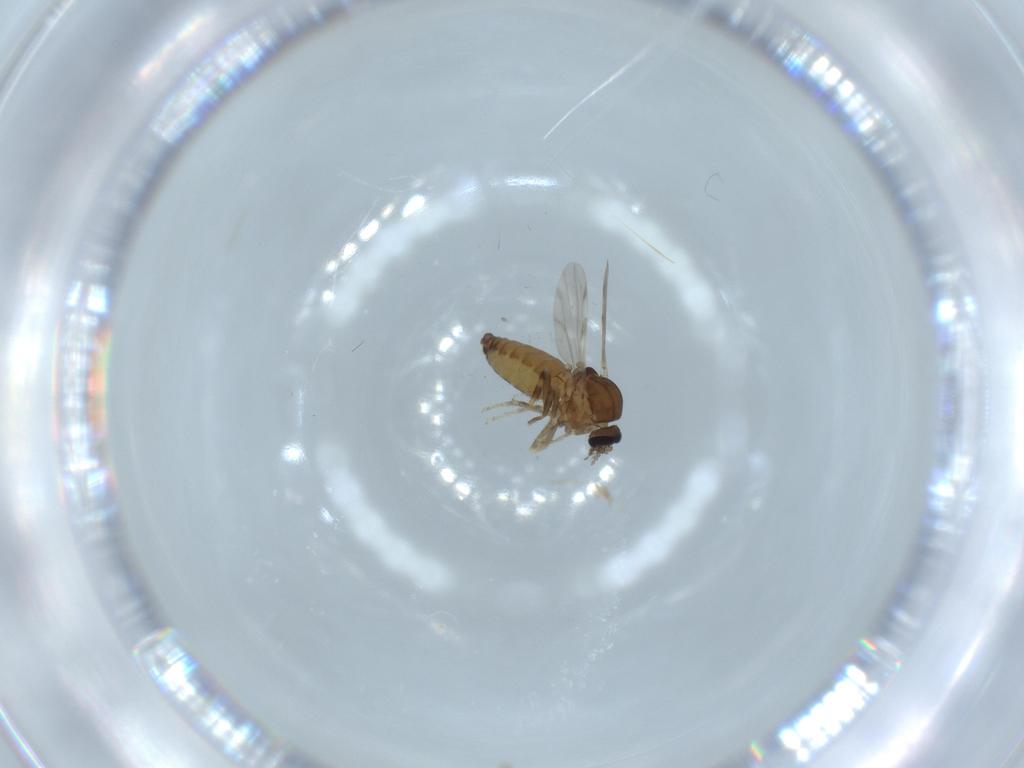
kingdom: Animalia
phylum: Arthropoda
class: Insecta
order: Diptera
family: Ceratopogonidae
